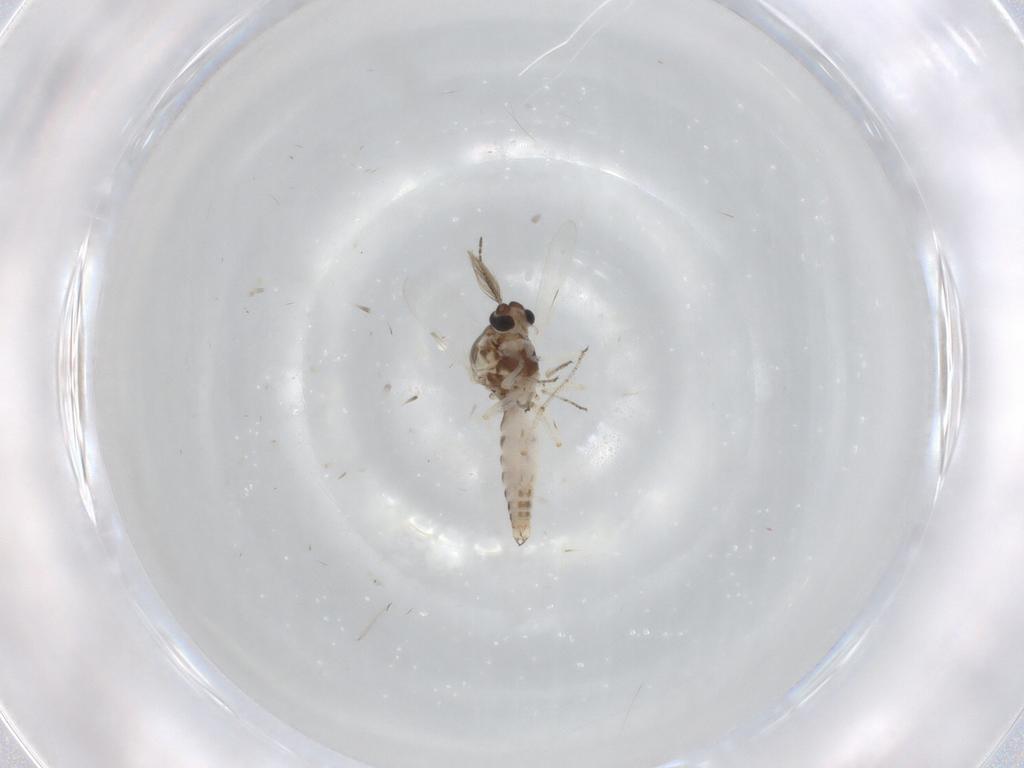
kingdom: Animalia
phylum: Arthropoda
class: Insecta
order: Diptera
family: Ceratopogonidae
